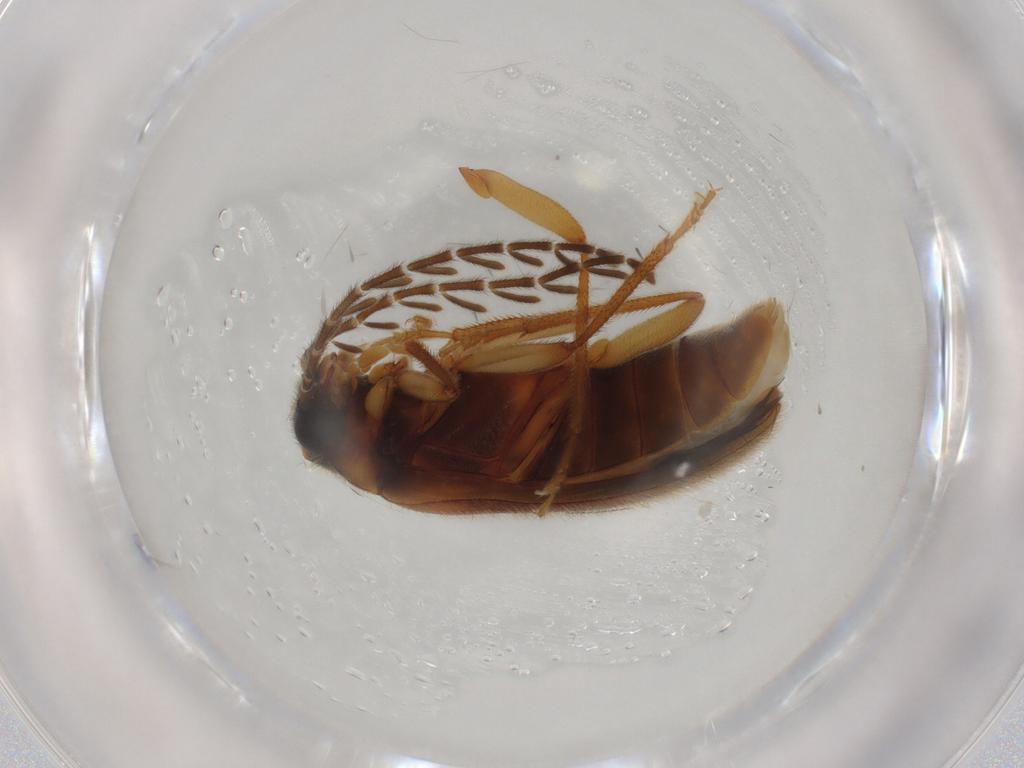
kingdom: Animalia
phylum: Arthropoda
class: Insecta
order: Coleoptera
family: Ptilodactylidae
